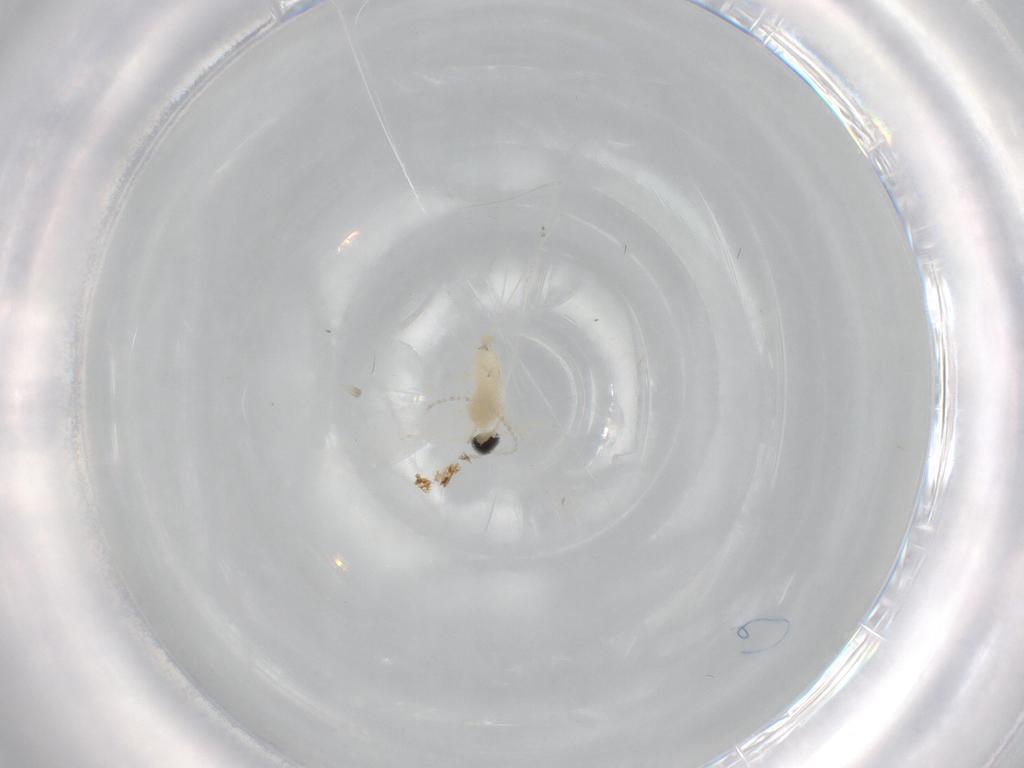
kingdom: Animalia
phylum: Arthropoda
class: Insecta
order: Diptera
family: Cecidomyiidae
